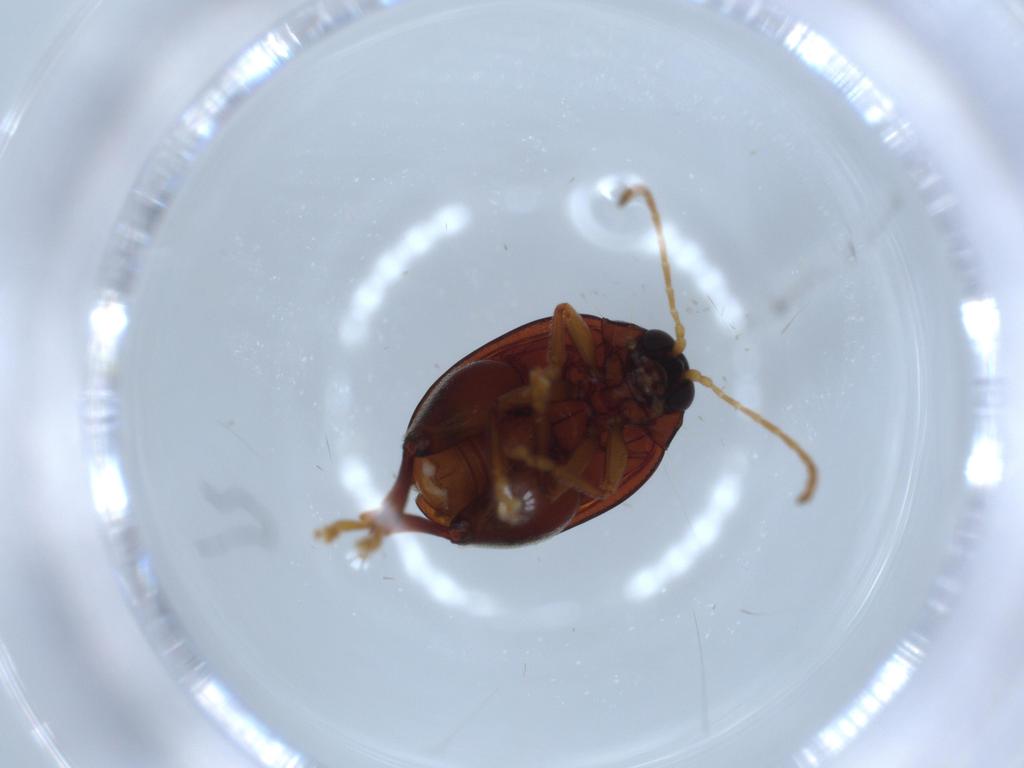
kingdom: Animalia
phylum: Arthropoda
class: Insecta
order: Coleoptera
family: Chrysomelidae
